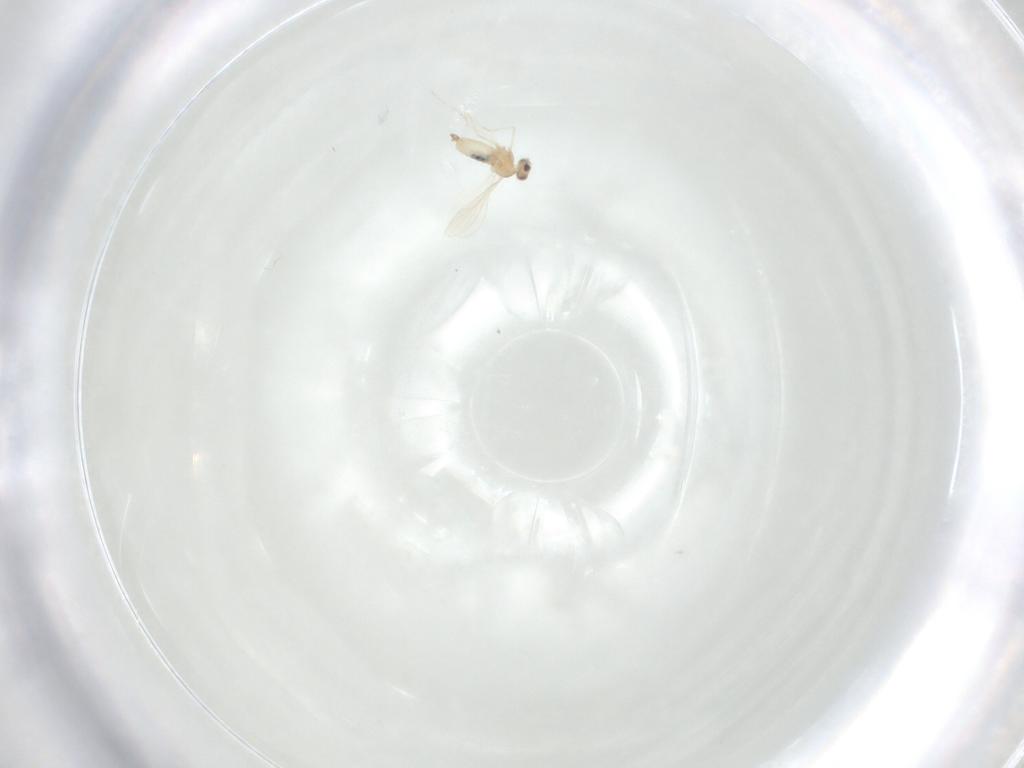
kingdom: Animalia
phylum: Arthropoda
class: Insecta
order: Diptera
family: Cecidomyiidae
